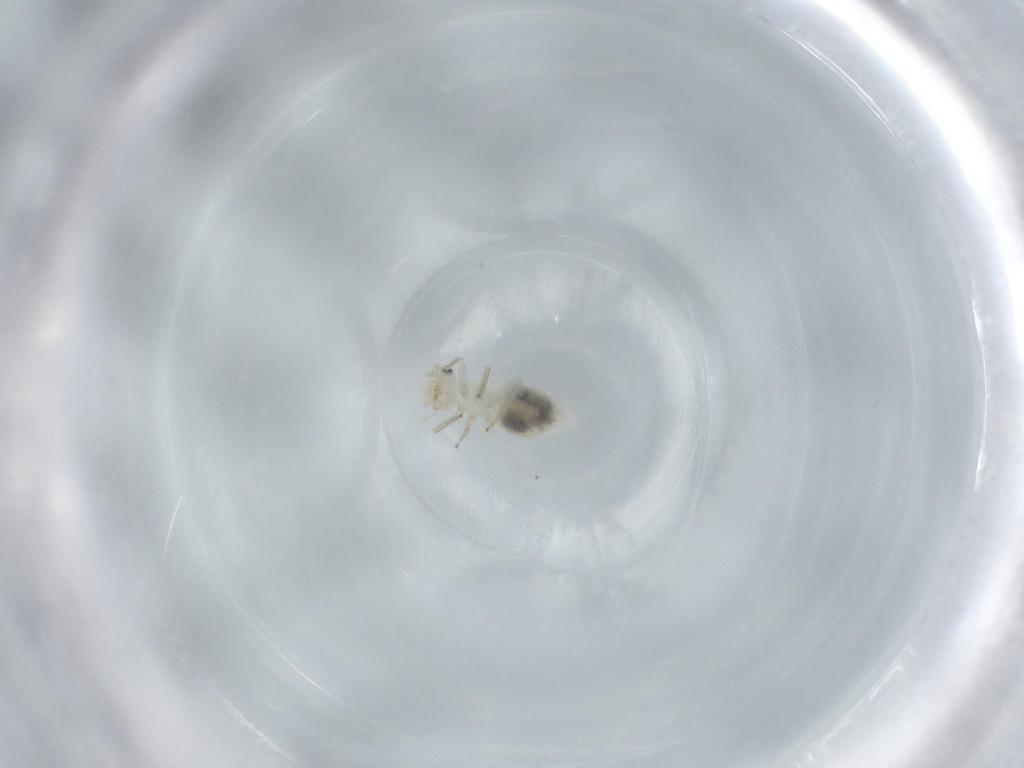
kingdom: Animalia
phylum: Arthropoda
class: Insecta
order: Psocodea
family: Caeciliusidae
